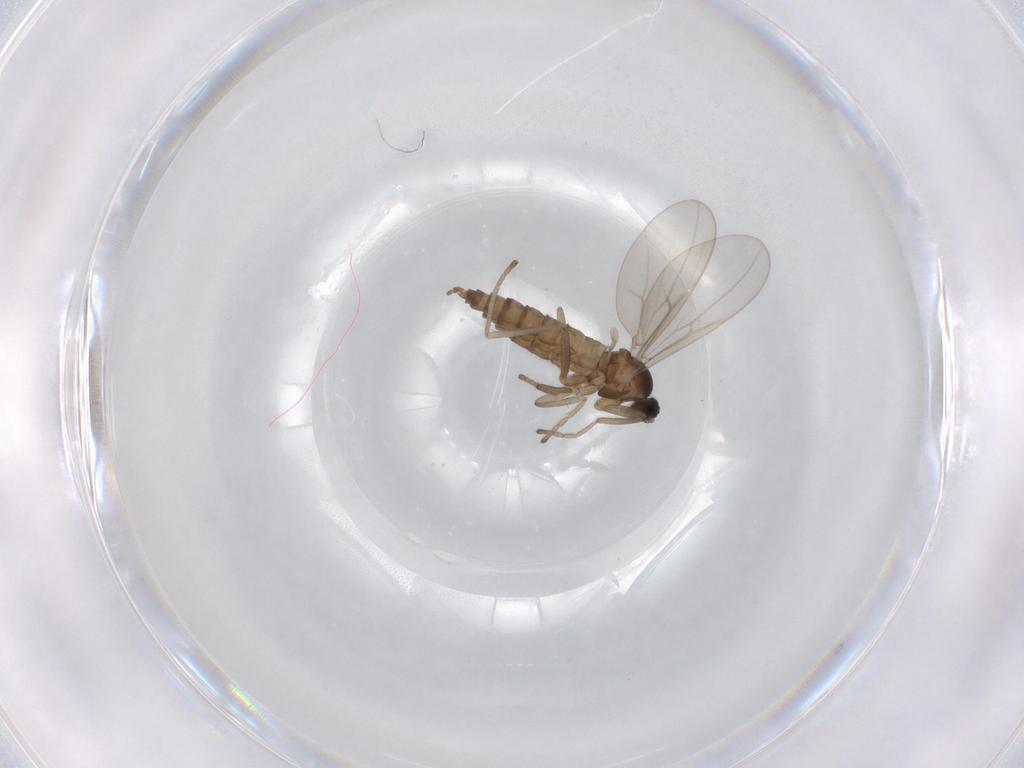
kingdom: Animalia
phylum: Arthropoda
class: Insecta
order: Diptera
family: Cecidomyiidae
